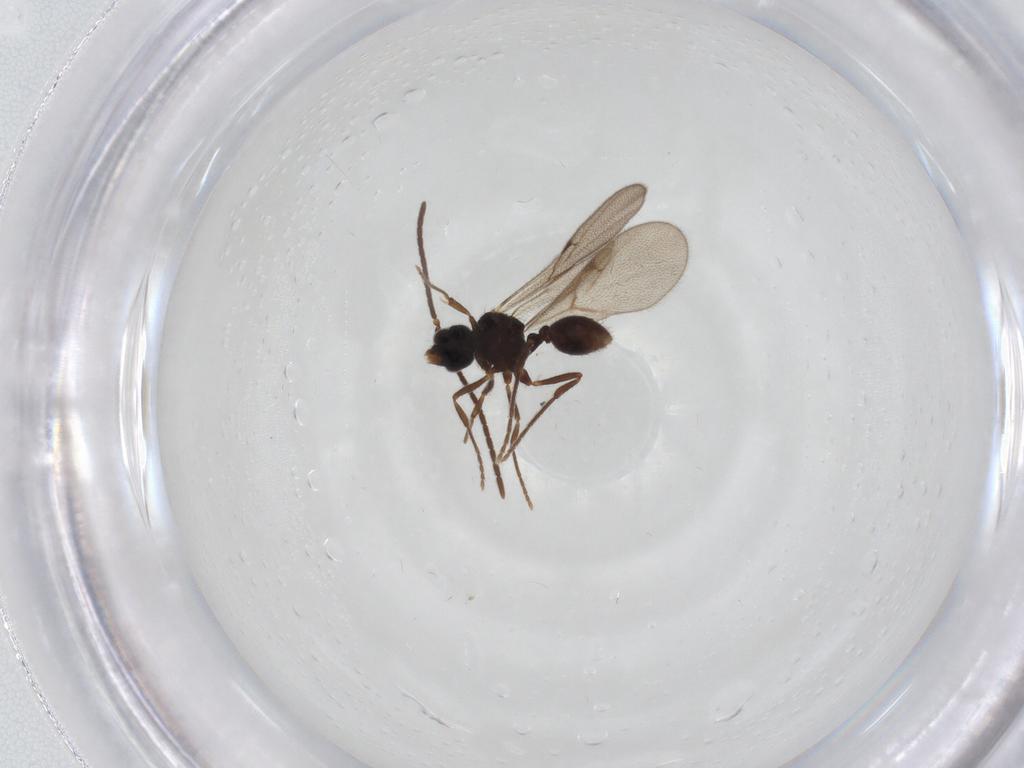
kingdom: Animalia
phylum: Arthropoda
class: Insecta
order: Hymenoptera
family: Formicidae
